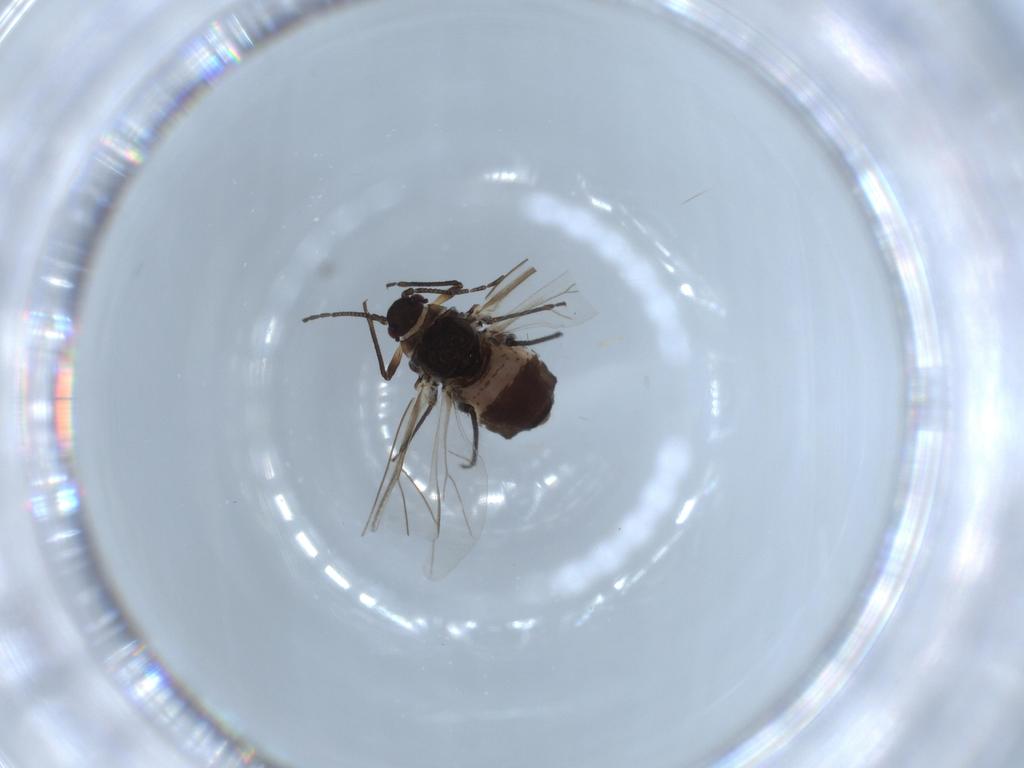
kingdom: Animalia
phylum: Arthropoda
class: Insecta
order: Hemiptera
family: Aphididae
